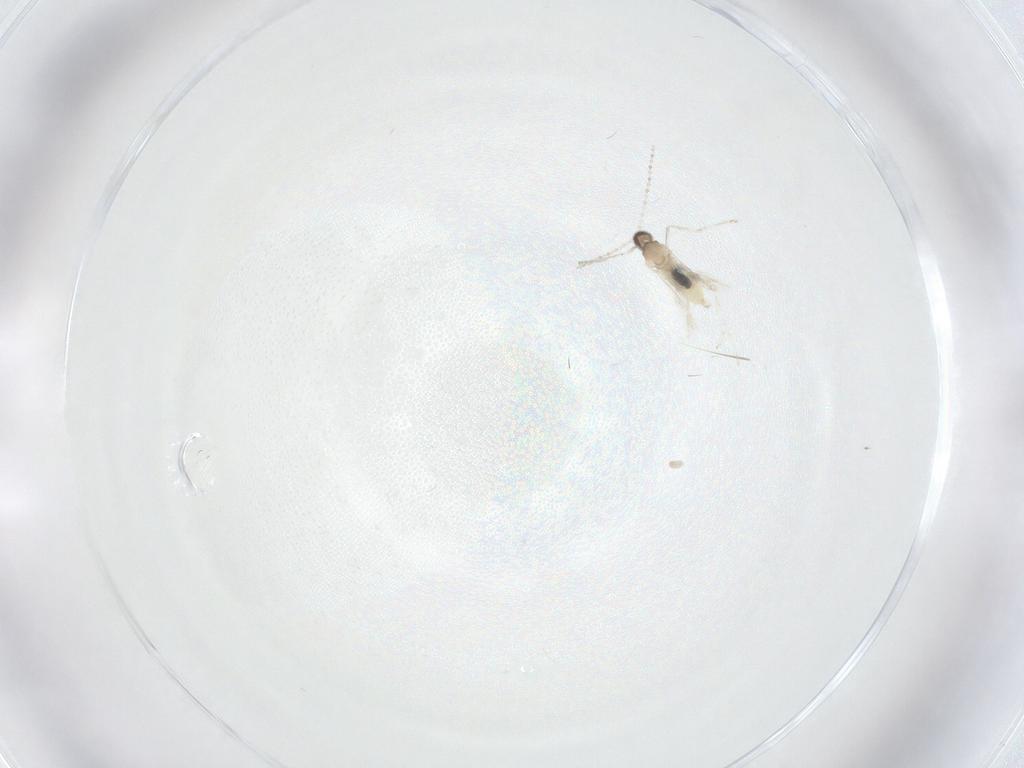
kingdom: Animalia
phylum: Arthropoda
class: Insecta
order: Diptera
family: Cecidomyiidae
